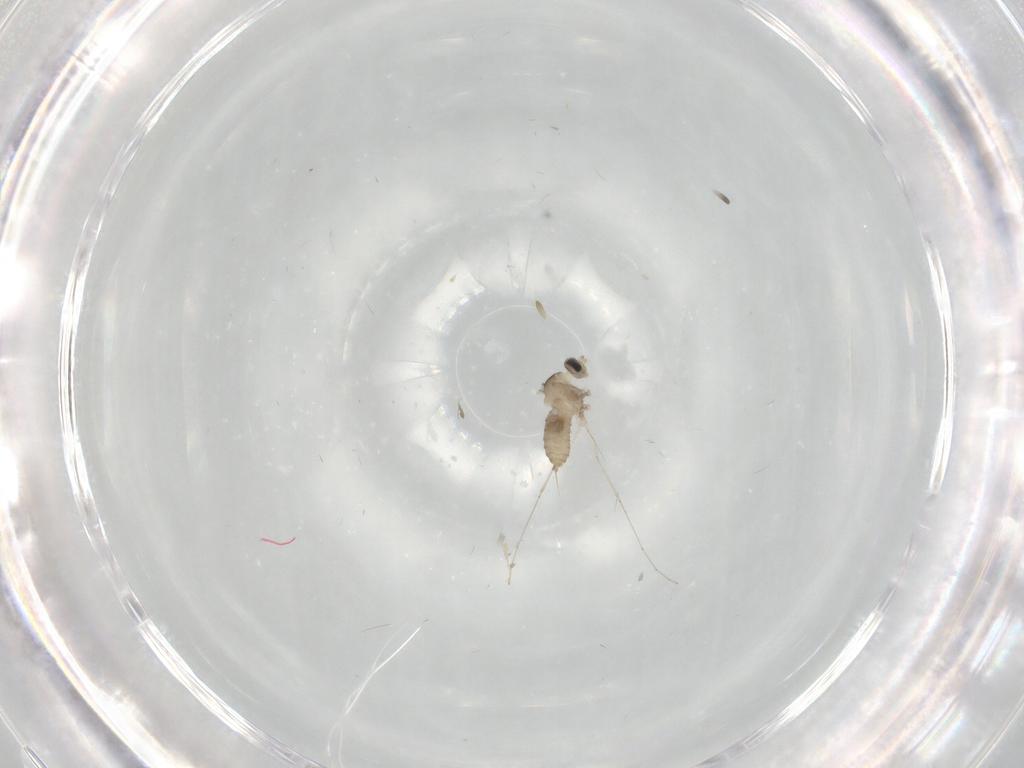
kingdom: Animalia
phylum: Arthropoda
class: Insecta
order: Diptera
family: Cecidomyiidae
